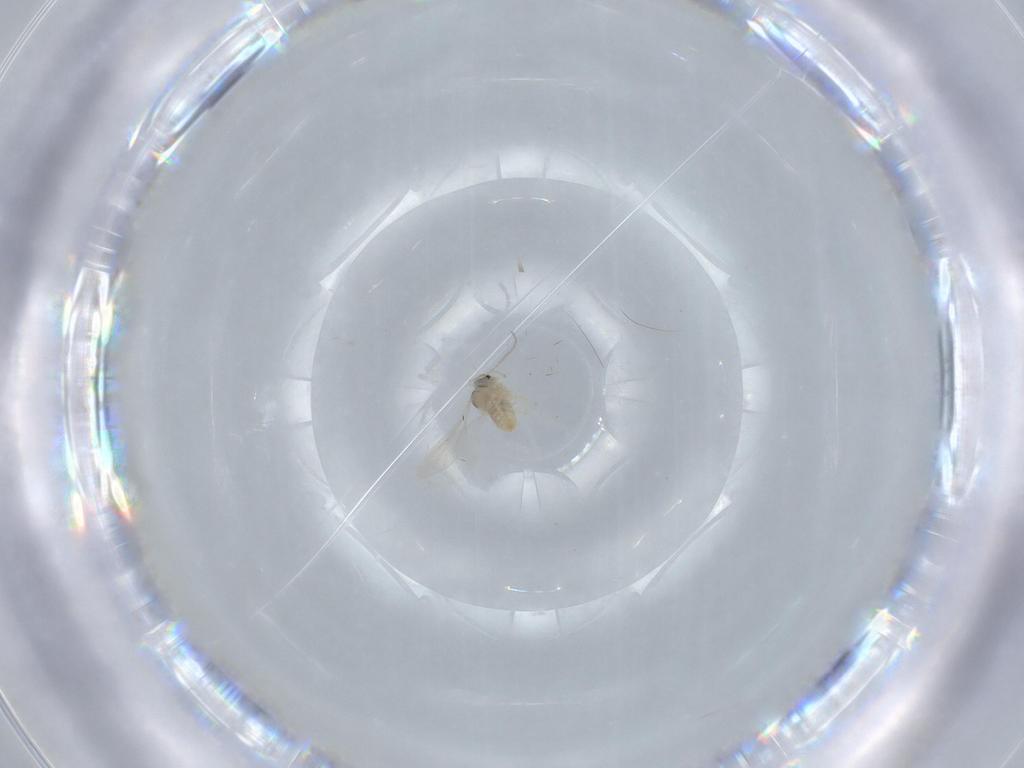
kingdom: Animalia
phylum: Arthropoda
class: Insecta
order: Diptera
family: Cecidomyiidae
